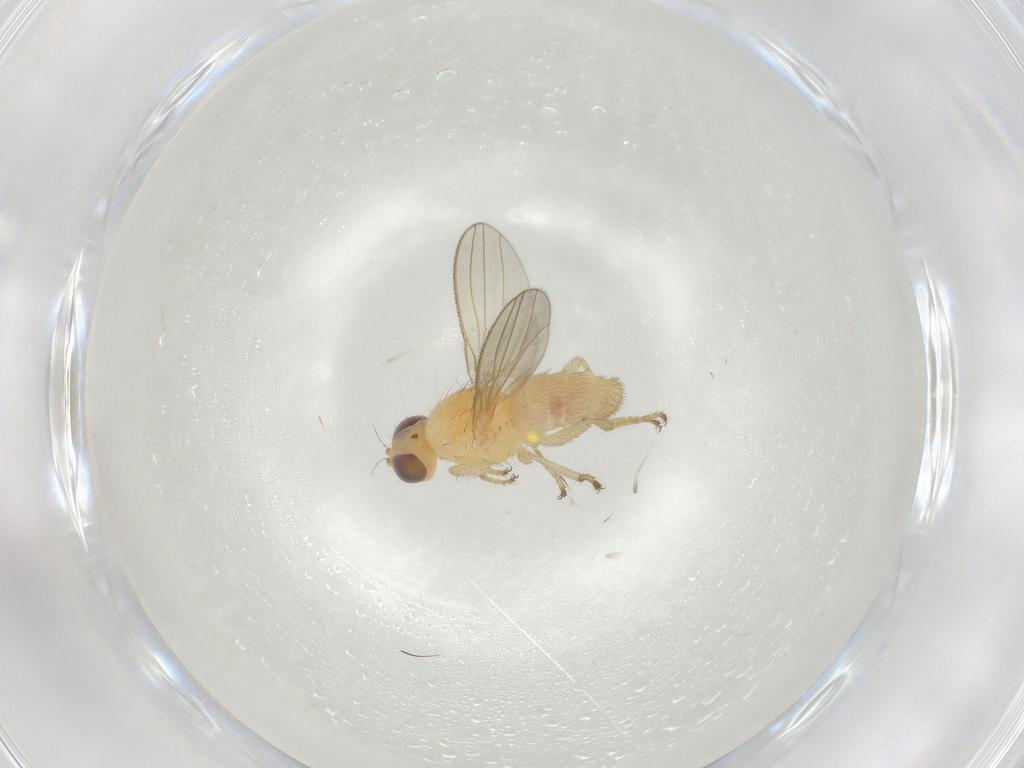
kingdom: Animalia
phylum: Arthropoda
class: Insecta
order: Diptera
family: Chyromyidae
